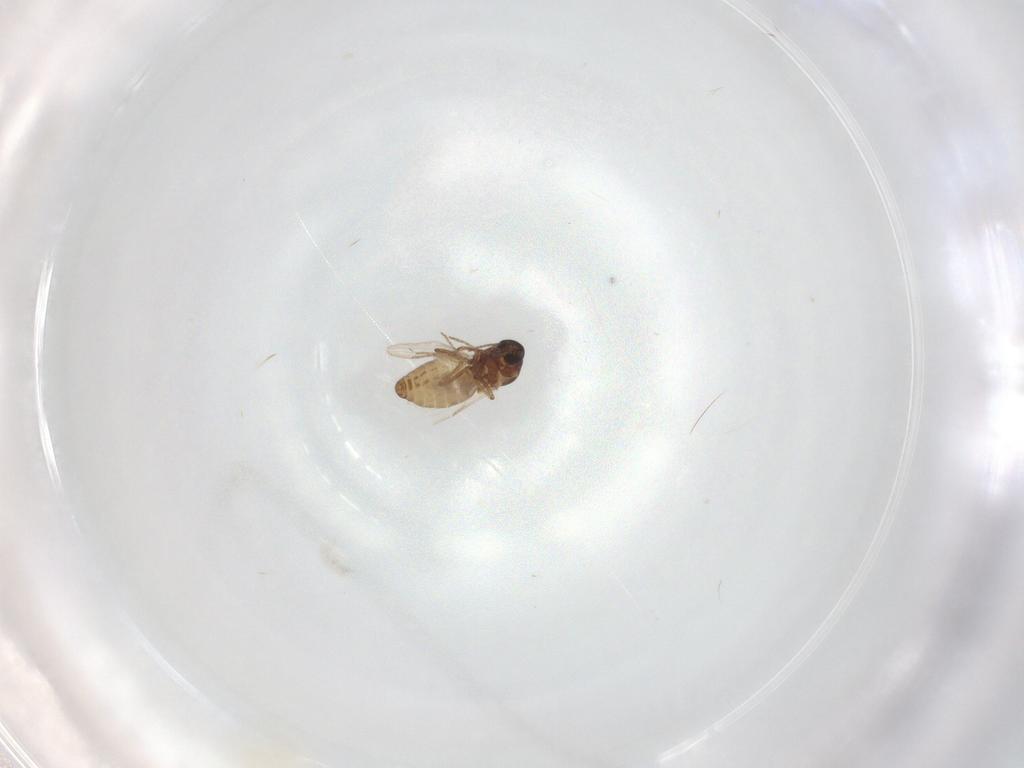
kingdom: Animalia
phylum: Arthropoda
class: Insecta
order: Diptera
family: Ceratopogonidae
